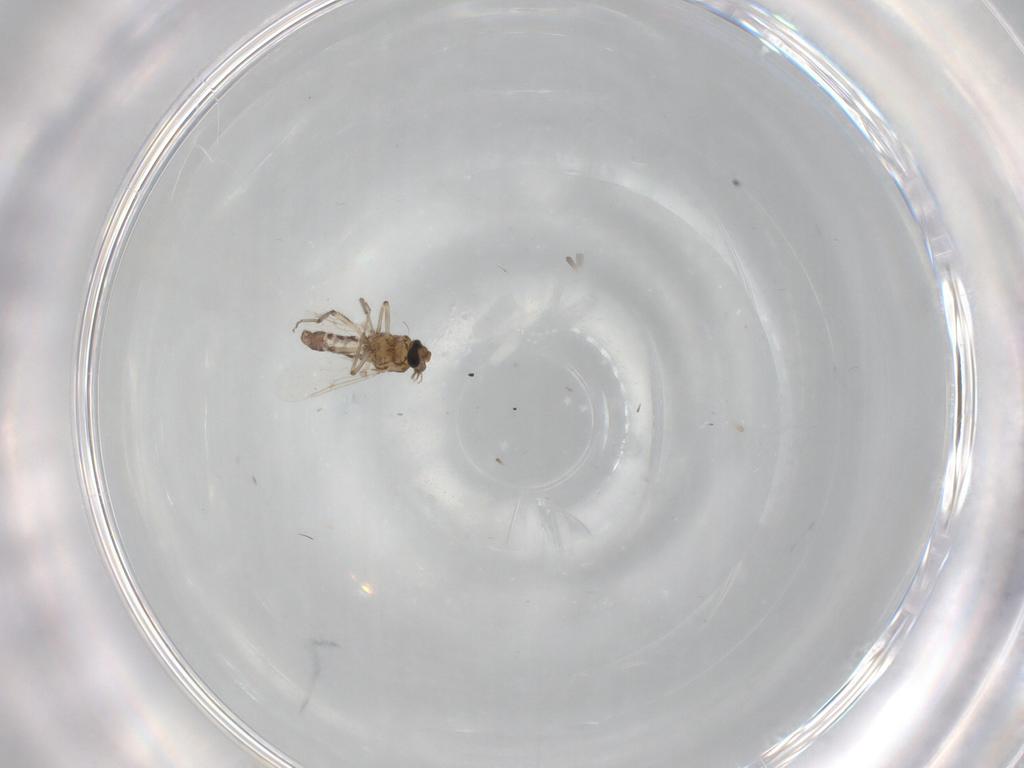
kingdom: Animalia
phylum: Arthropoda
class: Insecta
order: Diptera
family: Ceratopogonidae
